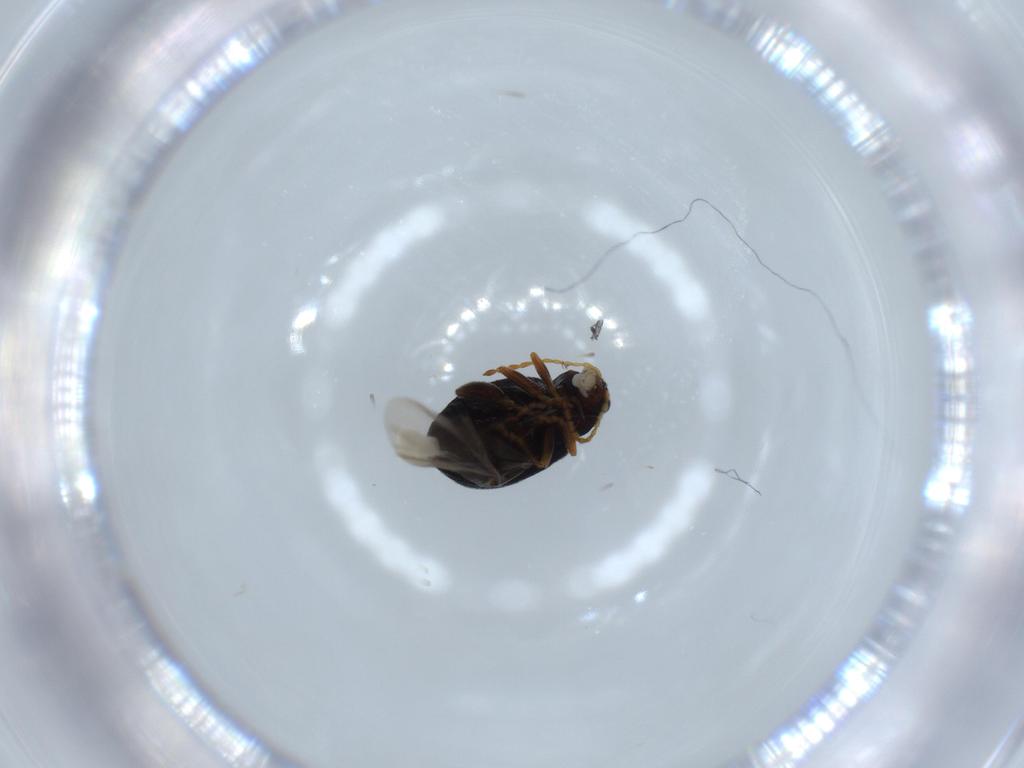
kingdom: Animalia
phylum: Arthropoda
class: Insecta
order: Coleoptera
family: Chrysomelidae
